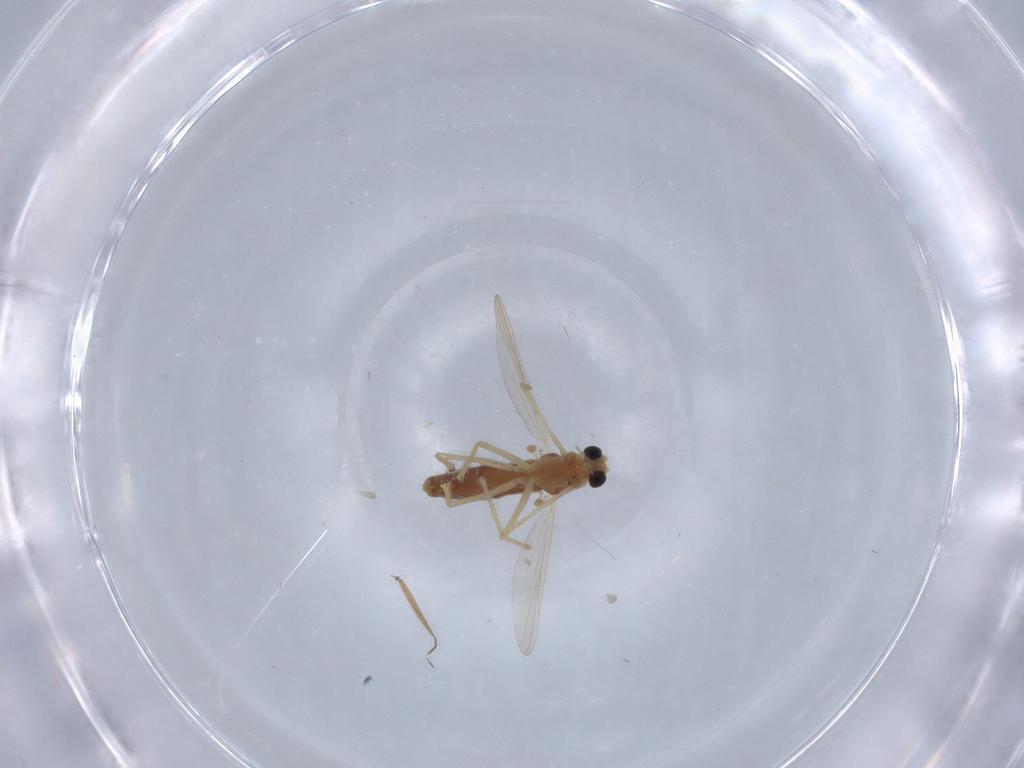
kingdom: Animalia
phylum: Arthropoda
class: Insecta
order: Diptera
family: Chironomidae
